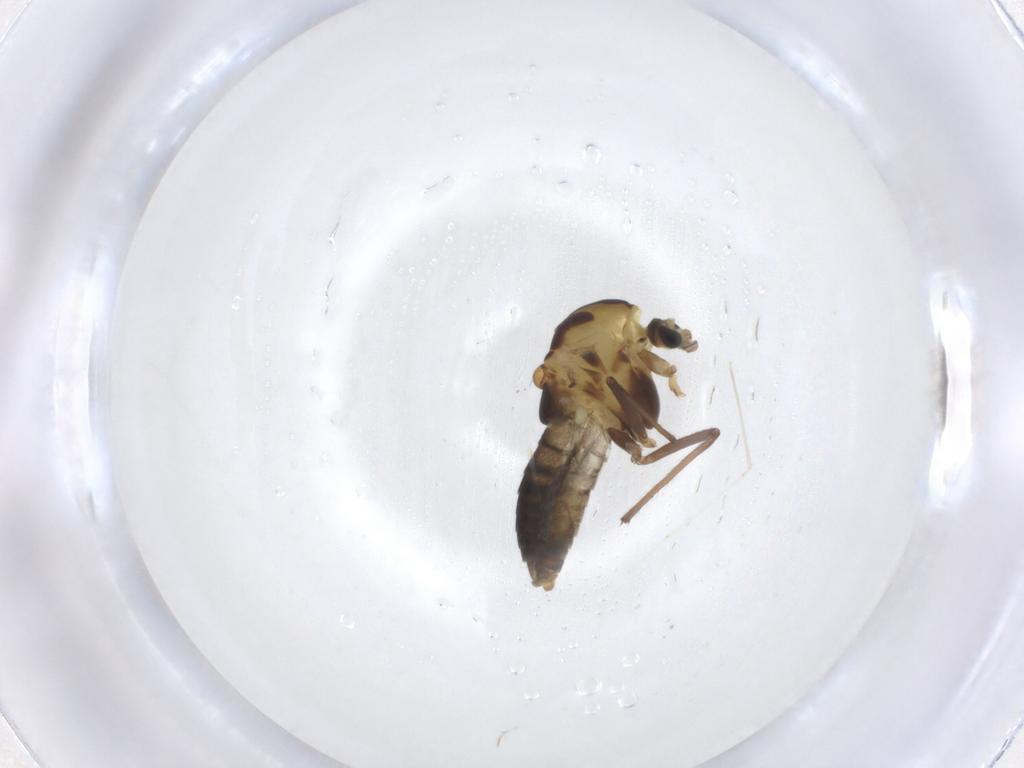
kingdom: Animalia
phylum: Arthropoda
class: Insecta
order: Diptera
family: Chironomidae
